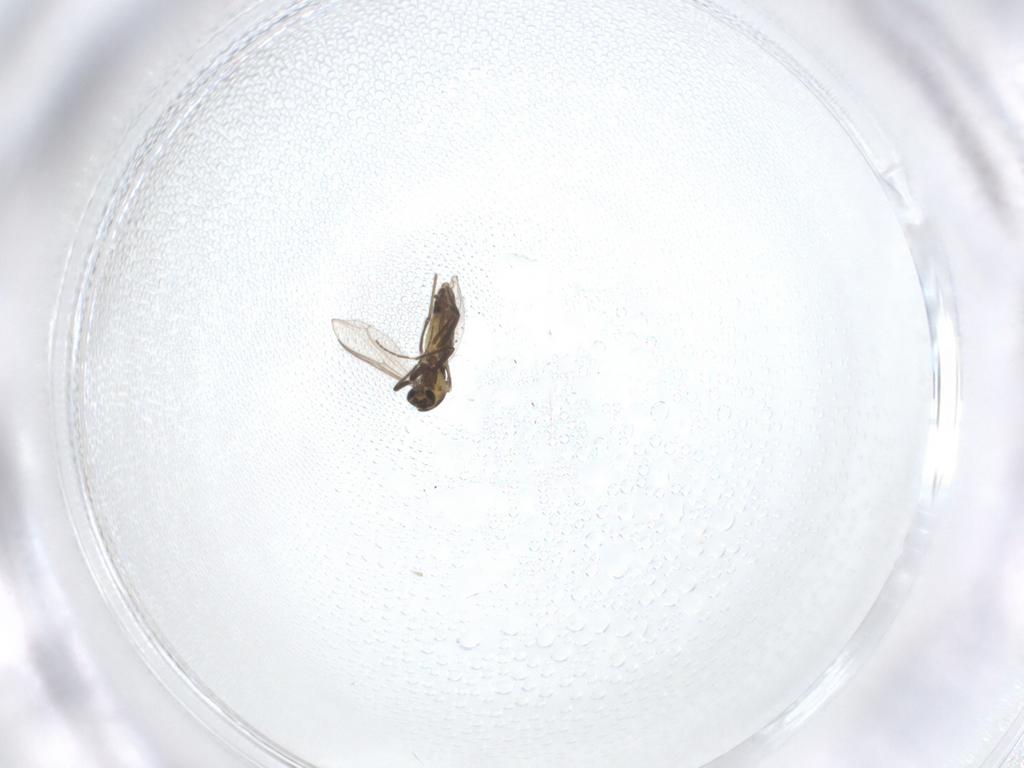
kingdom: Animalia
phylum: Arthropoda
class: Insecta
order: Diptera
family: Chironomidae
